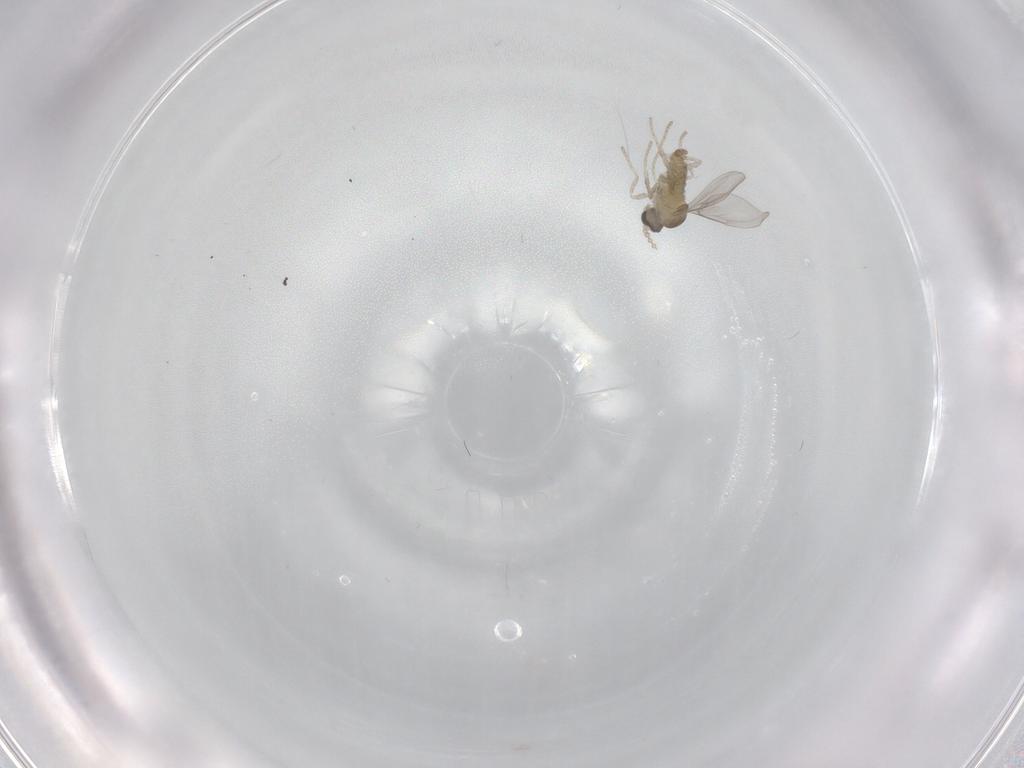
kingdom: Animalia
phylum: Arthropoda
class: Insecta
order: Diptera
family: Cecidomyiidae
